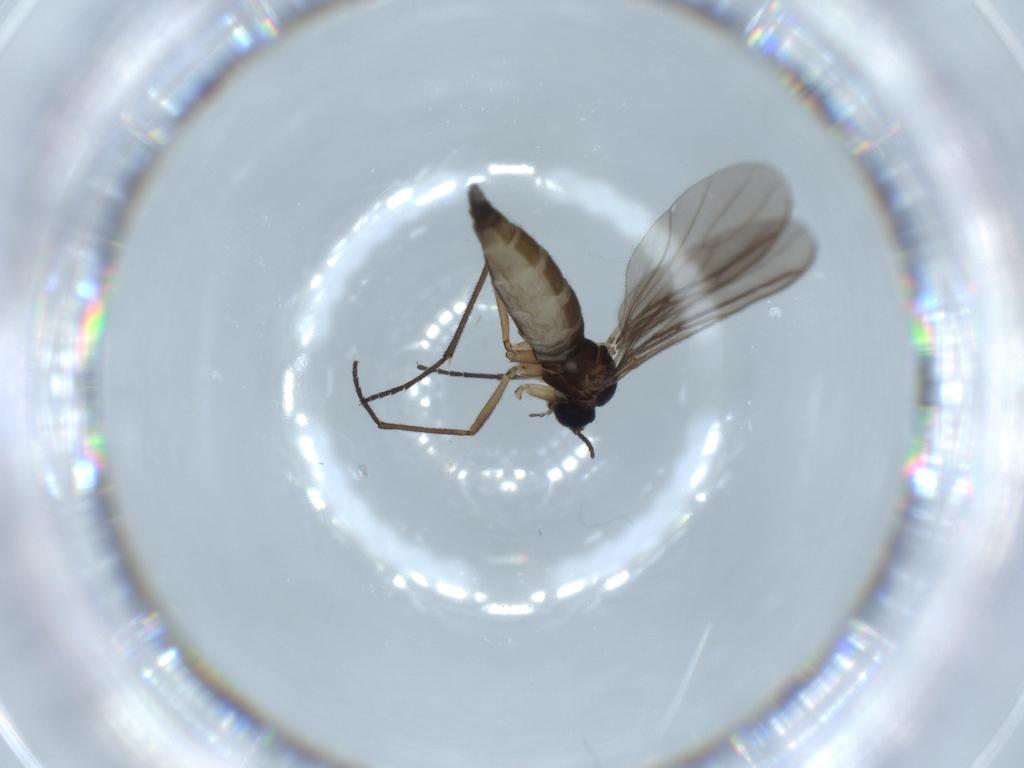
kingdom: Animalia
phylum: Arthropoda
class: Insecta
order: Diptera
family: Sciaridae
